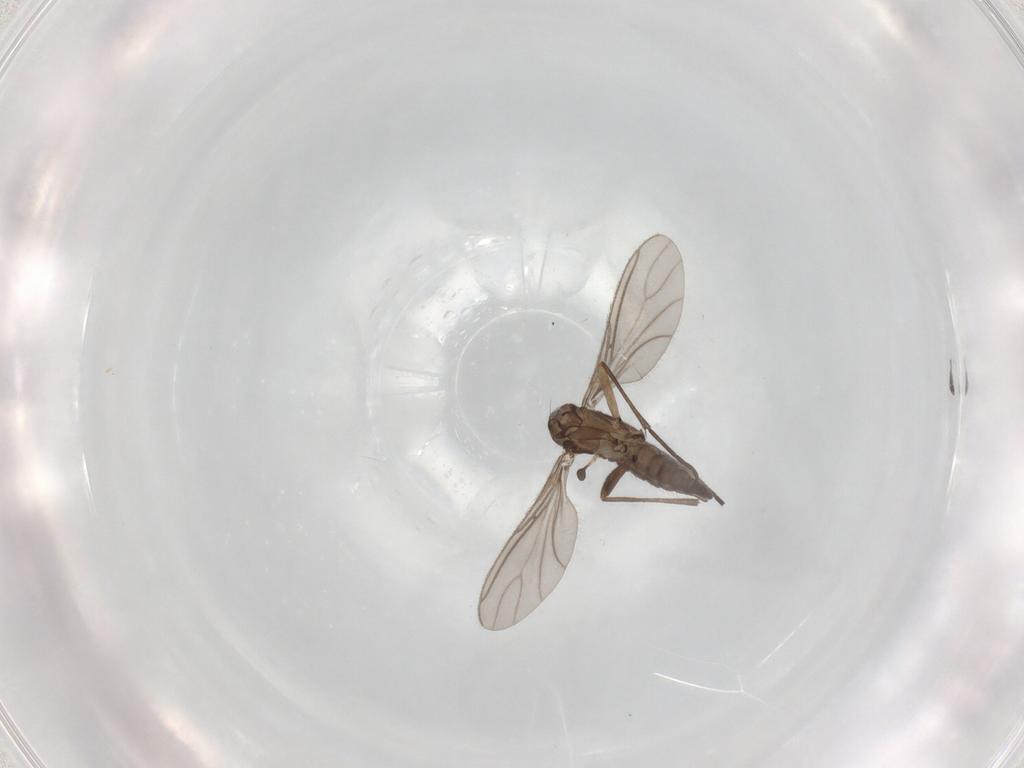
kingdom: Animalia
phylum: Arthropoda
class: Insecta
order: Diptera
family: Sciaridae
